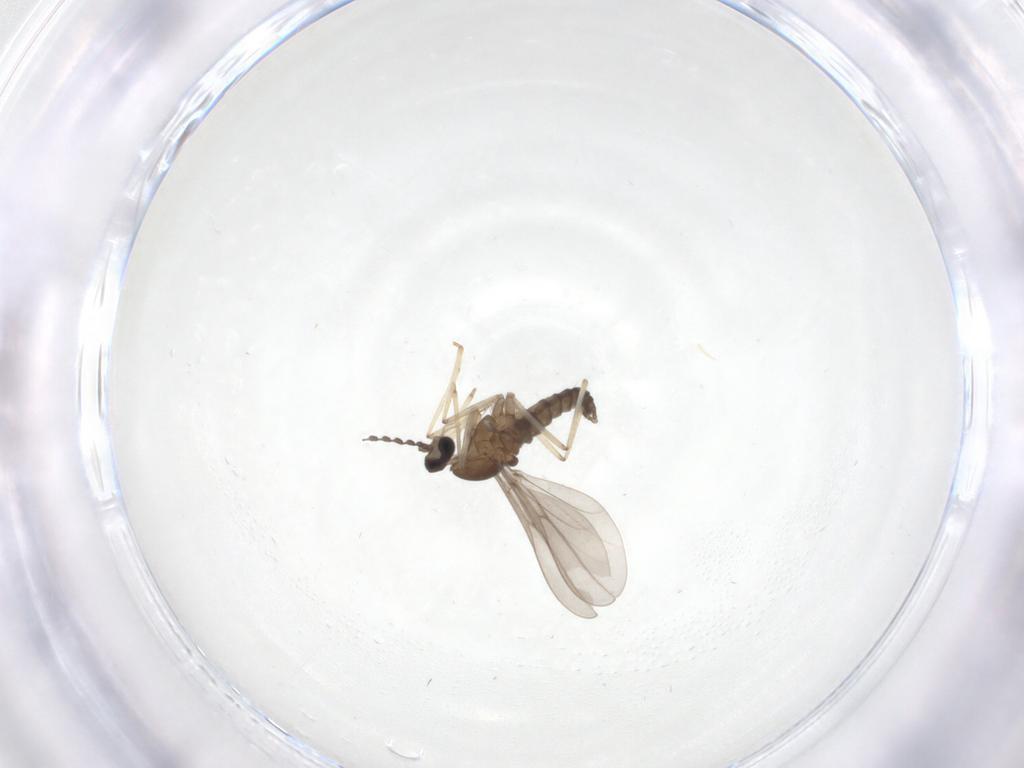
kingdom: Animalia
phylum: Arthropoda
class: Insecta
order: Diptera
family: Cecidomyiidae
